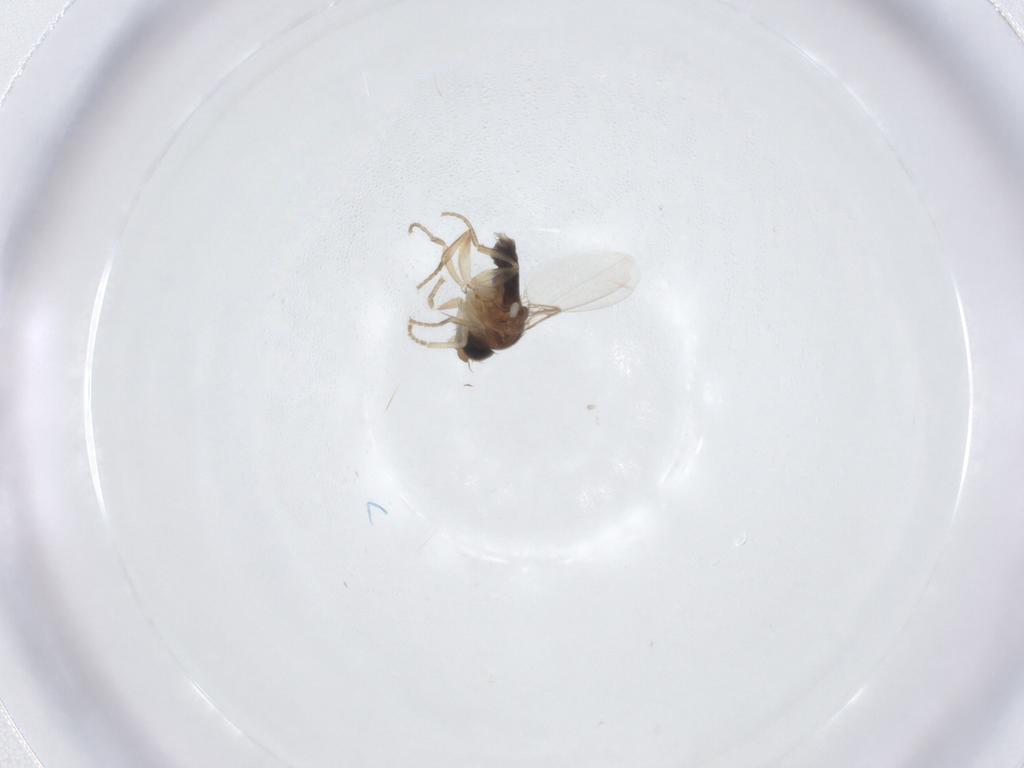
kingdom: Animalia
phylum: Arthropoda
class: Insecta
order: Diptera
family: Phoridae
